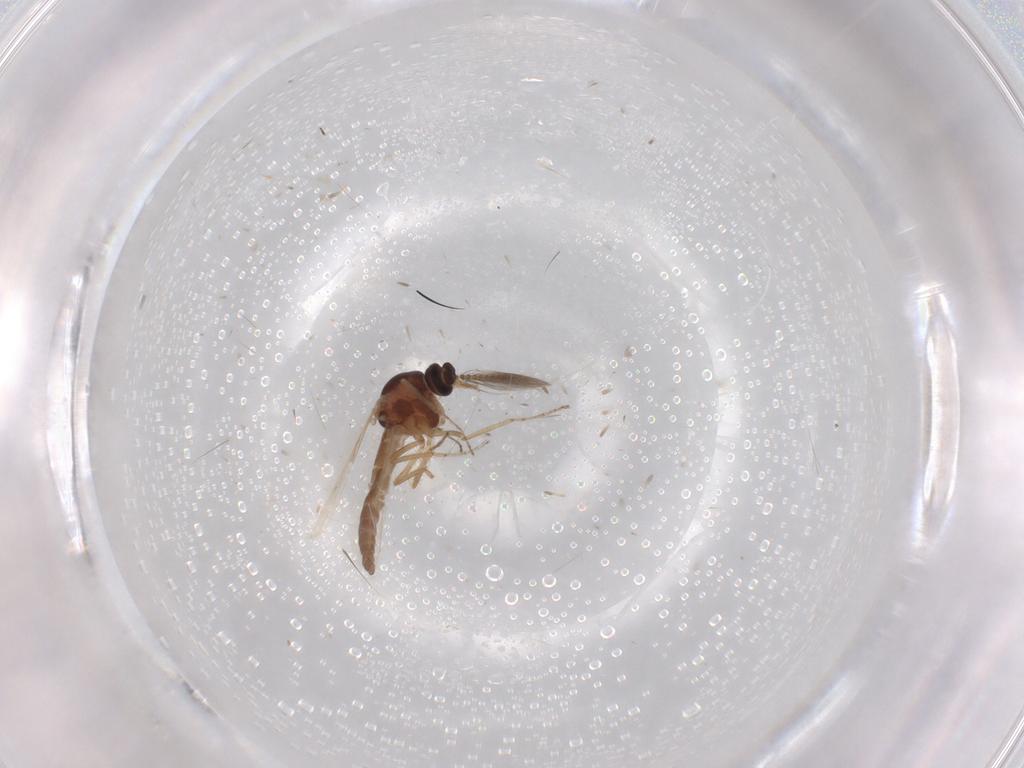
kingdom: Animalia
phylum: Arthropoda
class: Insecta
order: Diptera
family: Ceratopogonidae
